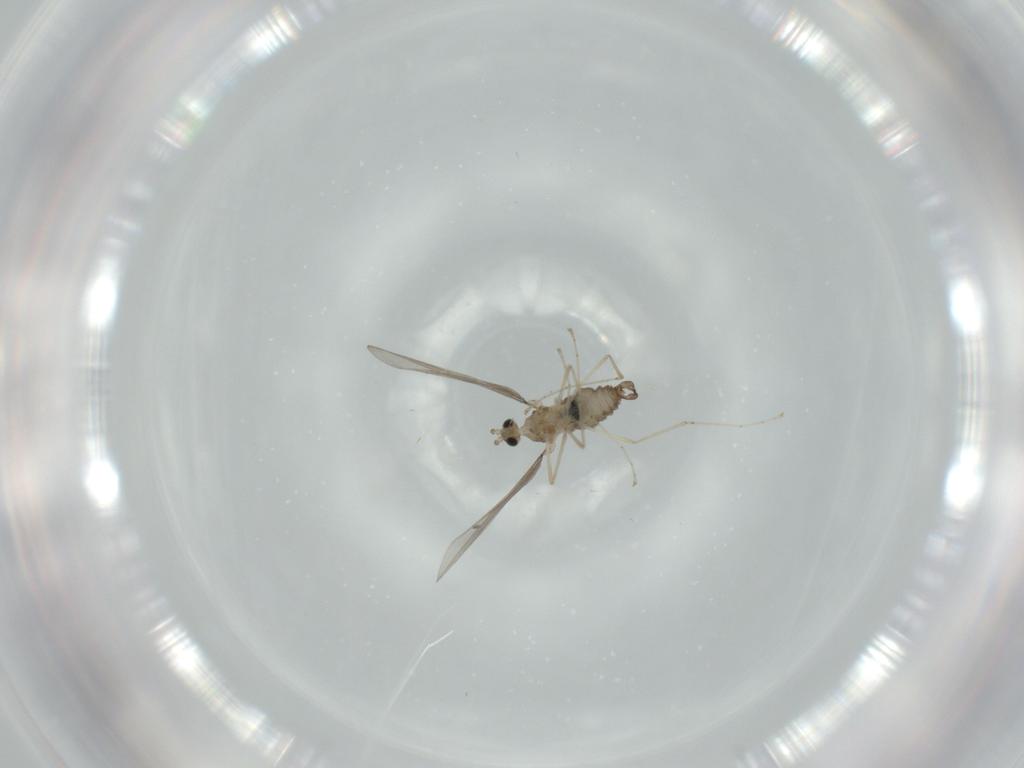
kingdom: Animalia
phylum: Arthropoda
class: Insecta
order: Diptera
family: Cecidomyiidae
